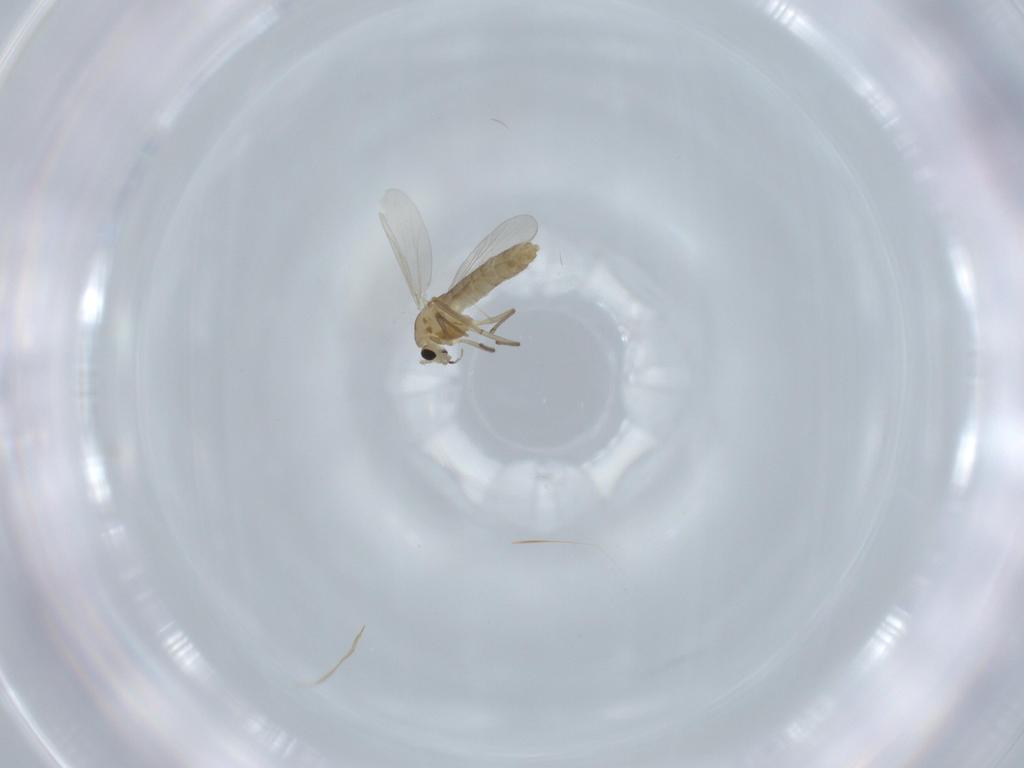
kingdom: Animalia
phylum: Arthropoda
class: Insecta
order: Diptera
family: Chironomidae
